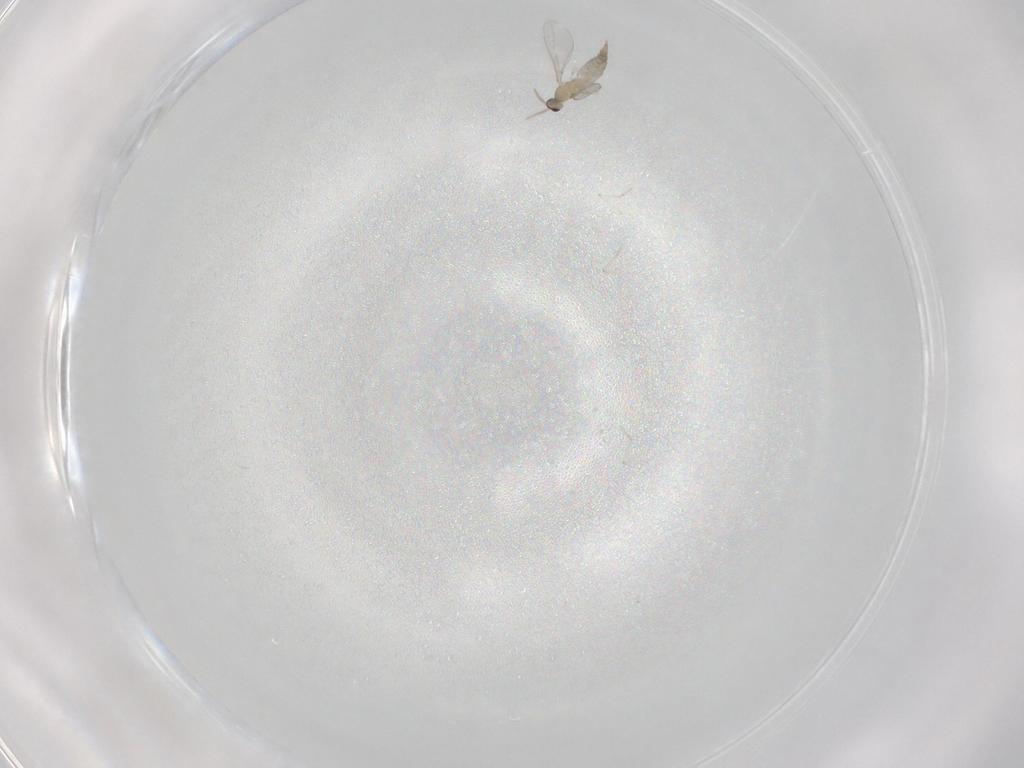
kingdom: Animalia
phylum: Arthropoda
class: Insecta
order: Diptera
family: Cecidomyiidae
